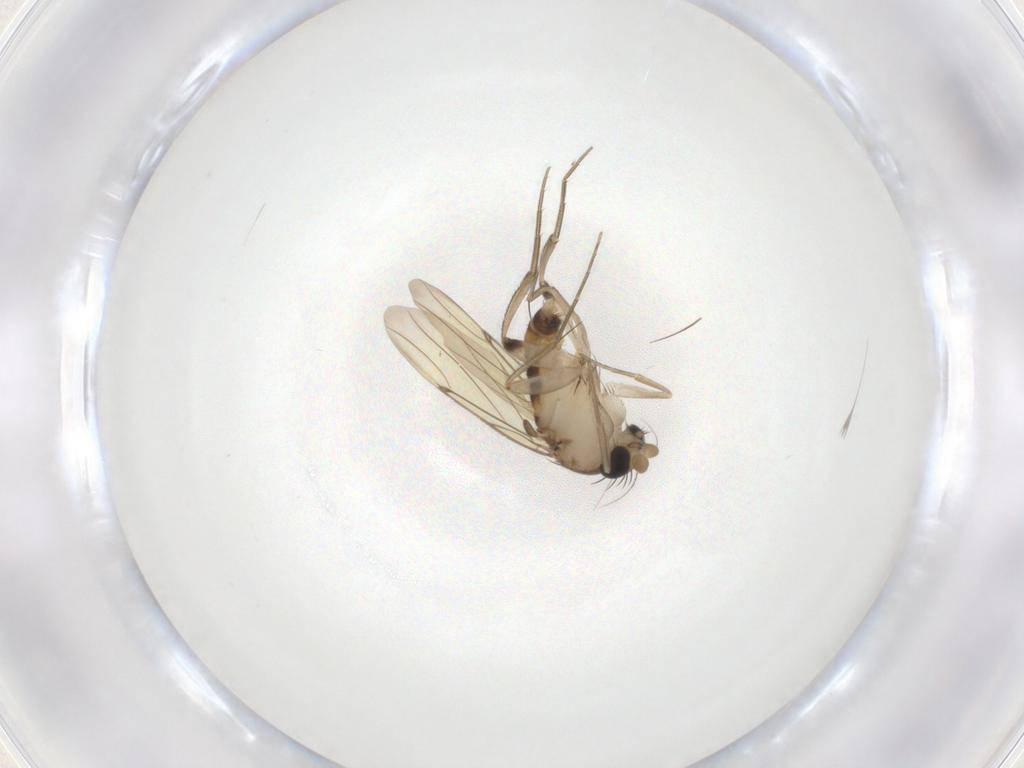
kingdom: Animalia
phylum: Arthropoda
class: Insecta
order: Diptera
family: Phoridae
